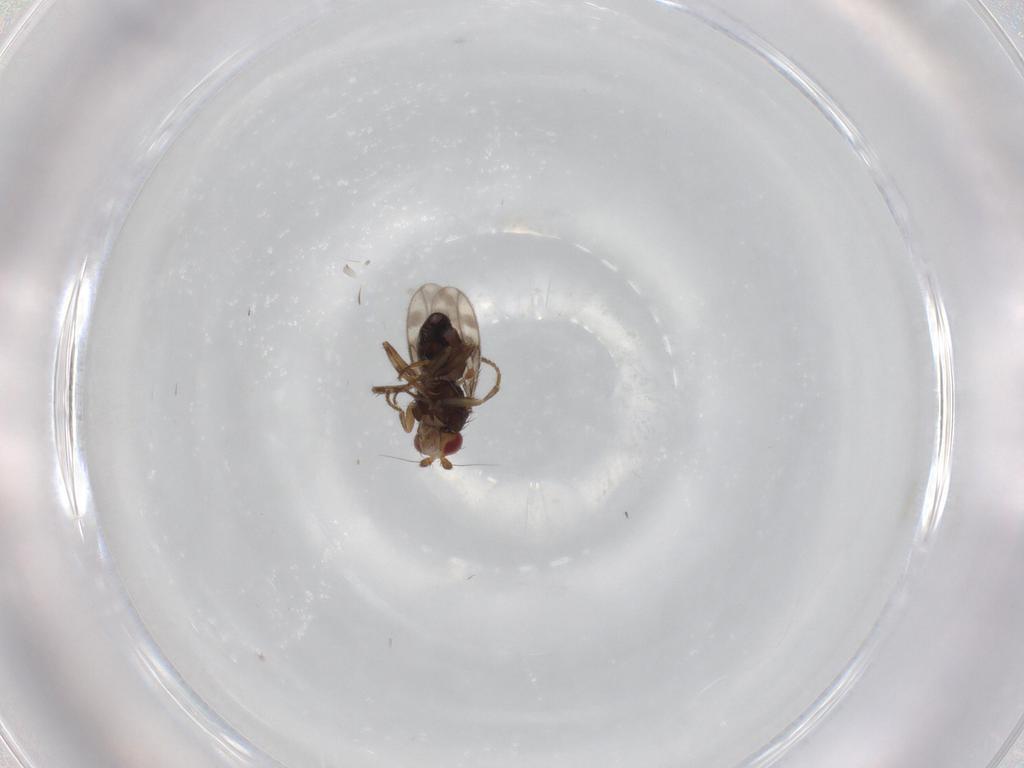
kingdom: Animalia
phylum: Arthropoda
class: Insecta
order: Diptera
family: Sphaeroceridae
